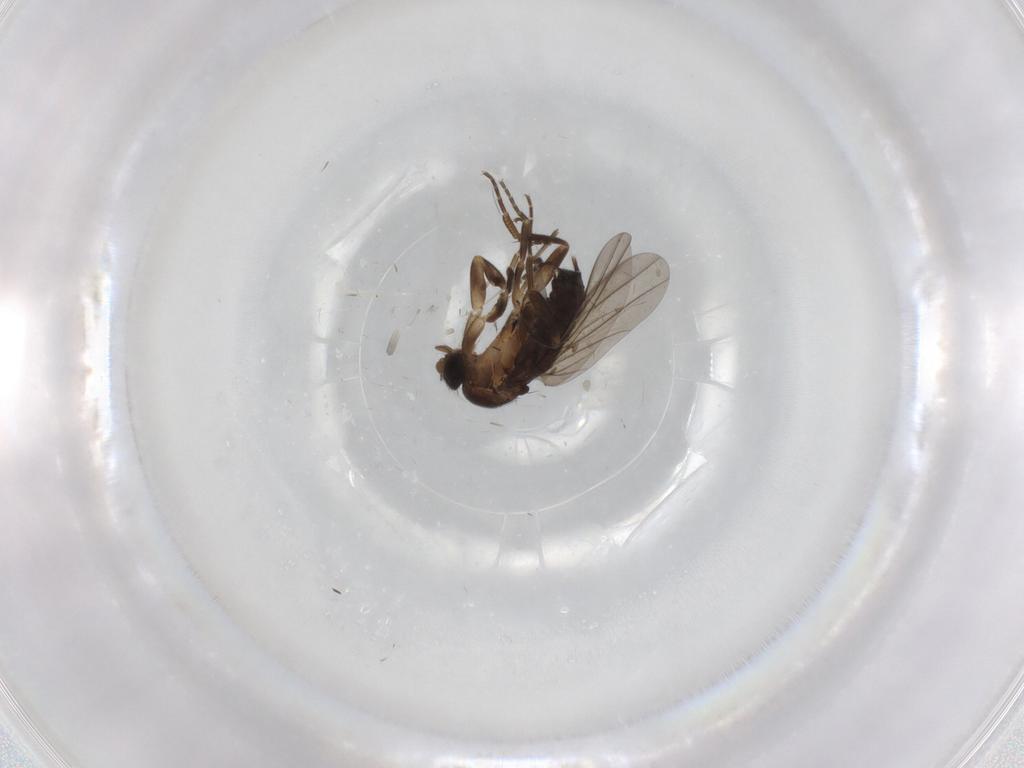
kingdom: Animalia
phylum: Arthropoda
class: Insecta
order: Diptera
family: Phoridae
